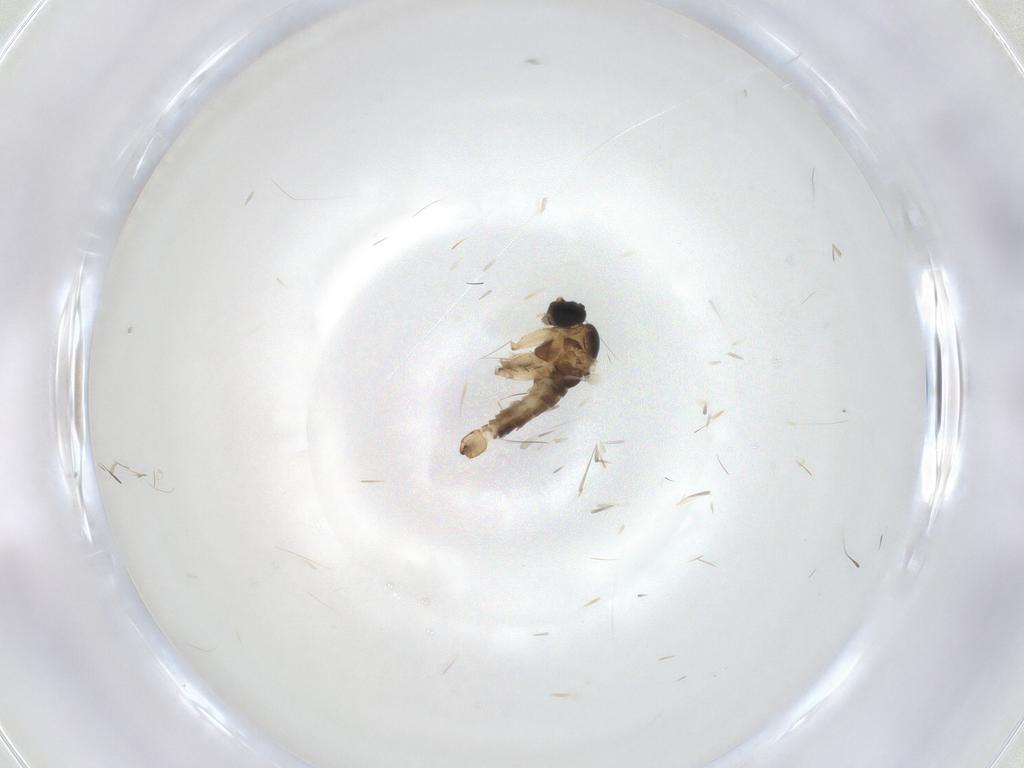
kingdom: Animalia
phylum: Arthropoda
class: Insecta
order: Diptera
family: Muscidae
